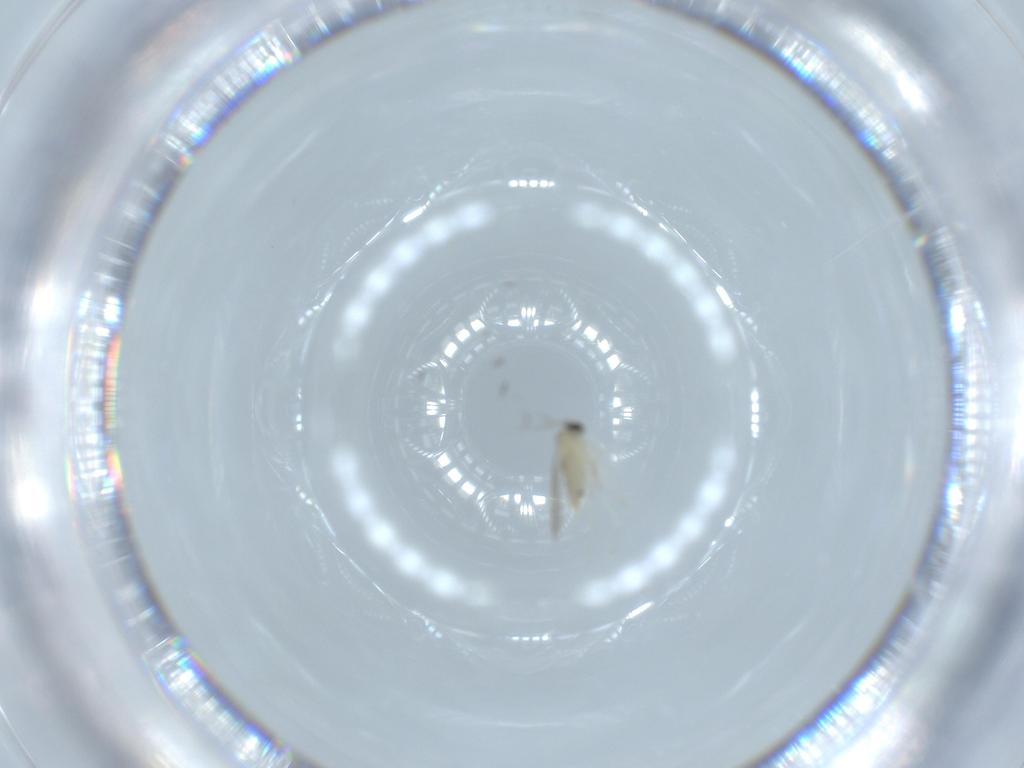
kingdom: Animalia
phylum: Arthropoda
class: Insecta
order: Diptera
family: Cecidomyiidae
